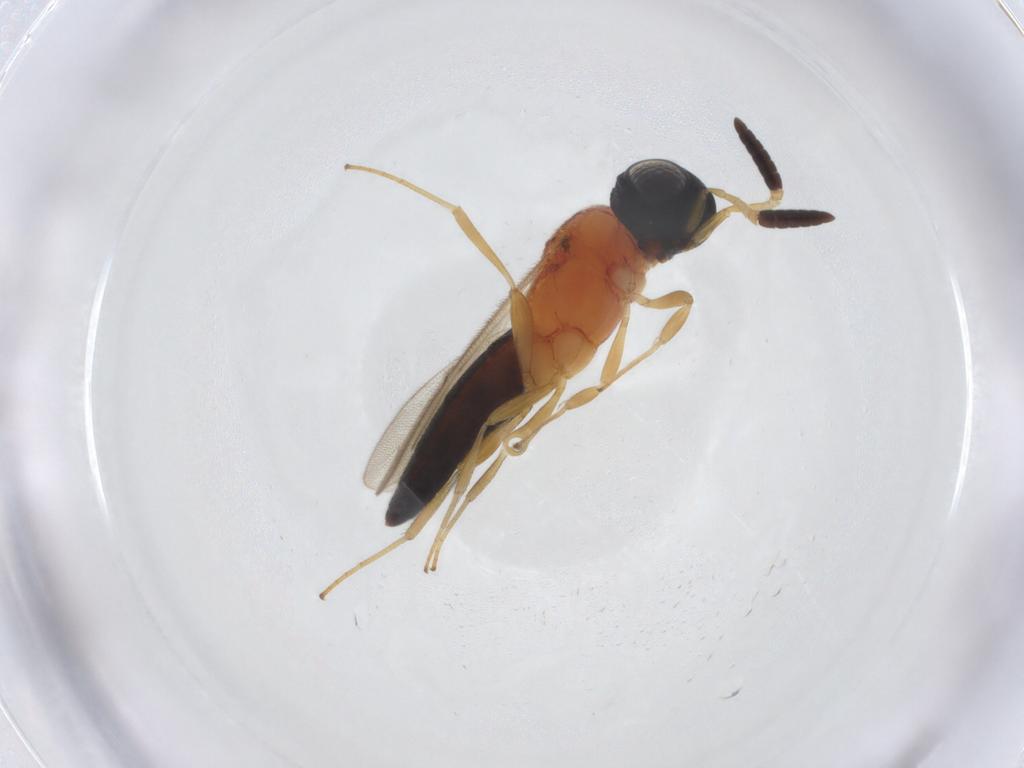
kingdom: Animalia
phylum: Arthropoda
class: Insecta
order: Hymenoptera
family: Scelionidae
